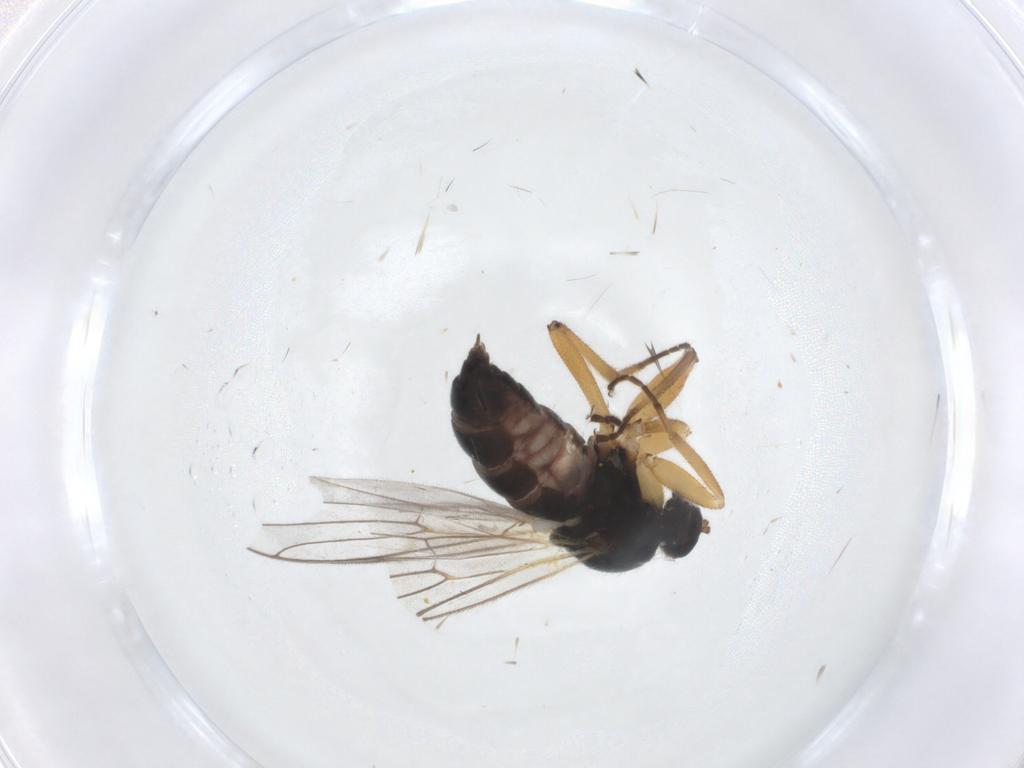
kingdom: Animalia
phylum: Arthropoda
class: Insecta
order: Diptera
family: Hybotidae
